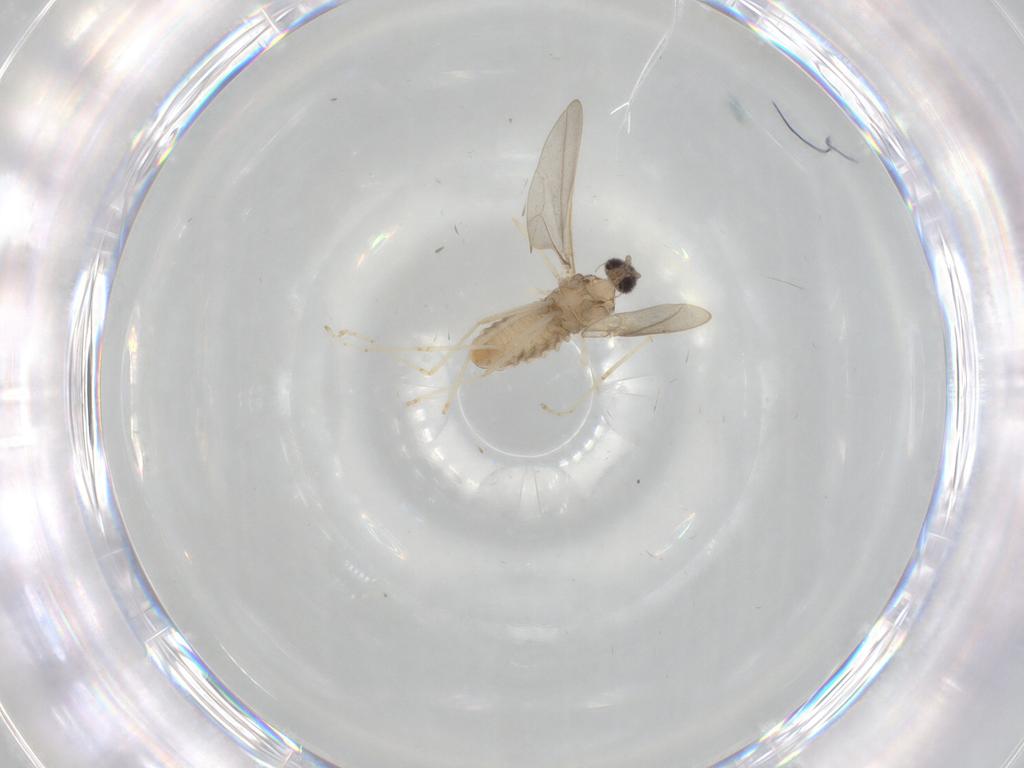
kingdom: Animalia
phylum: Arthropoda
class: Insecta
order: Diptera
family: Cecidomyiidae
